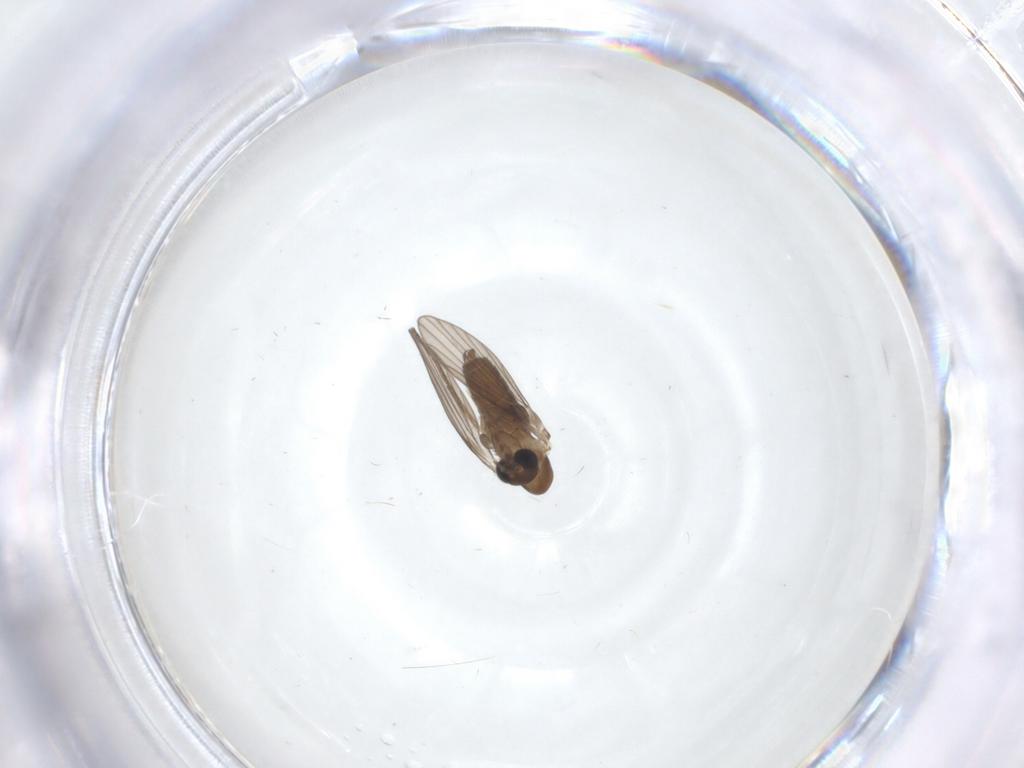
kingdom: Animalia
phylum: Arthropoda
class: Insecta
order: Diptera
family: Psychodidae
